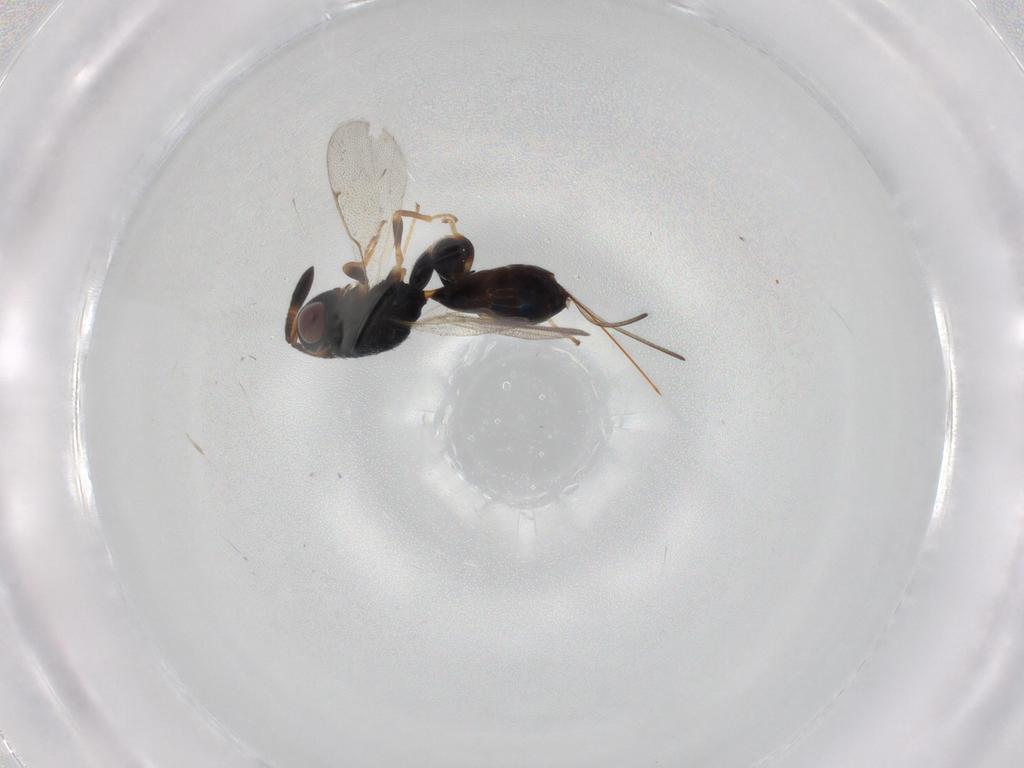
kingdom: Animalia
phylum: Arthropoda
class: Insecta
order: Hymenoptera
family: Torymidae
